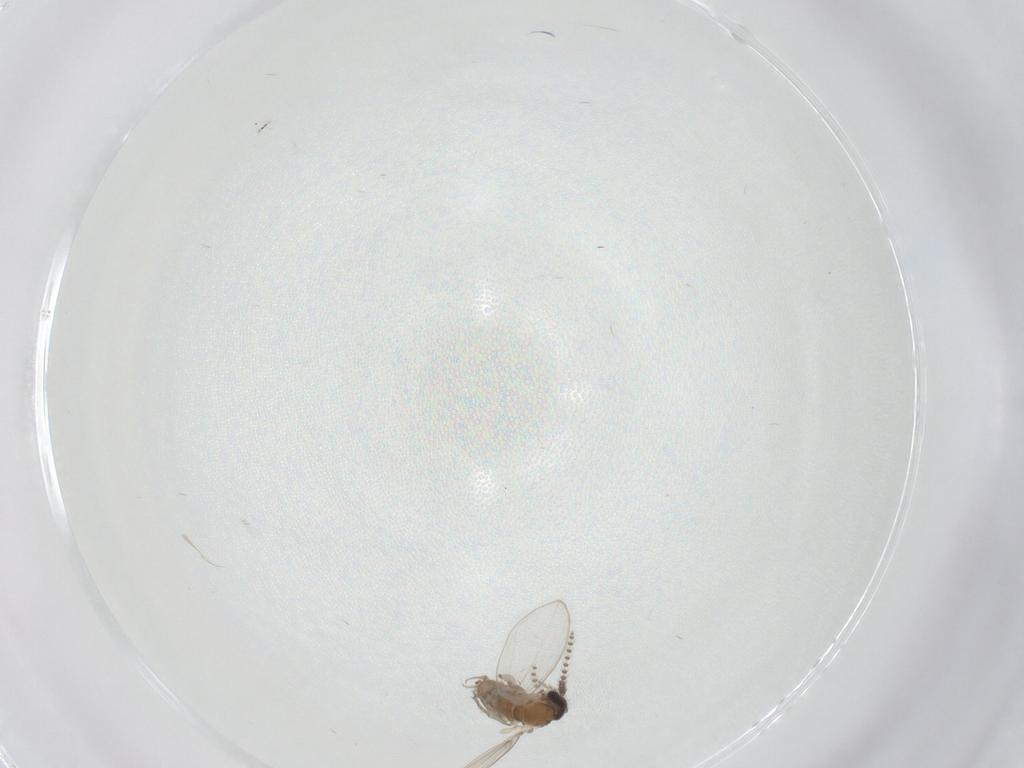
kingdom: Animalia
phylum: Arthropoda
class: Insecta
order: Diptera
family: Psychodidae
